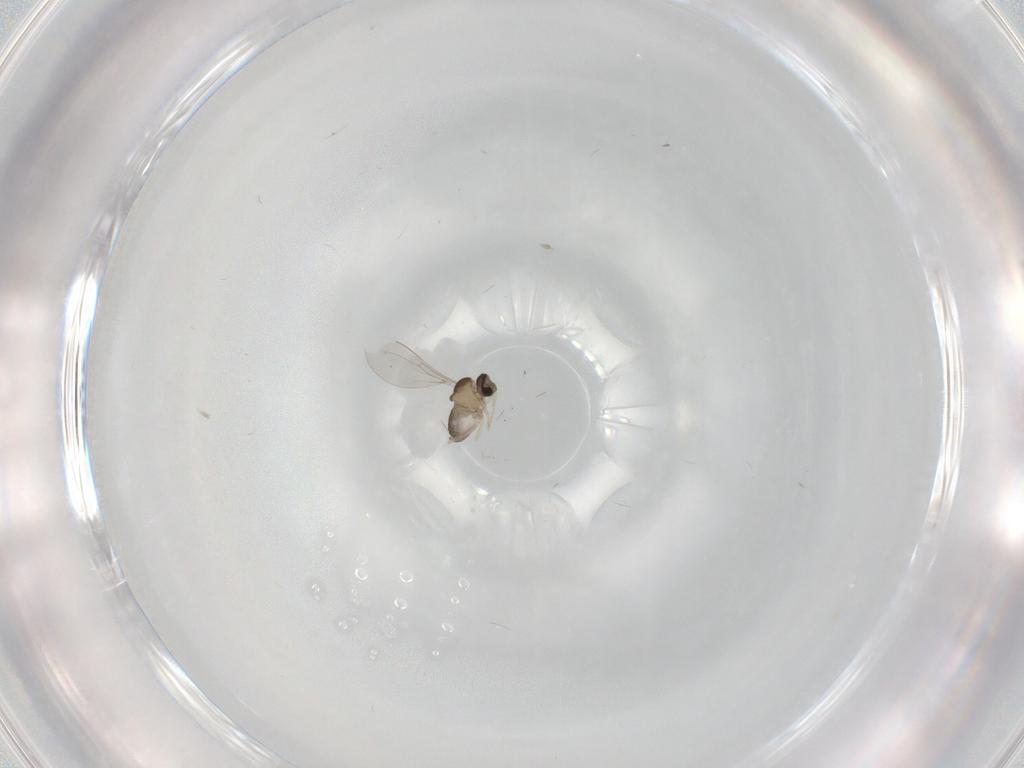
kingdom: Animalia
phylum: Arthropoda
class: Insecta
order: Diptera
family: Cecidomyiidae
